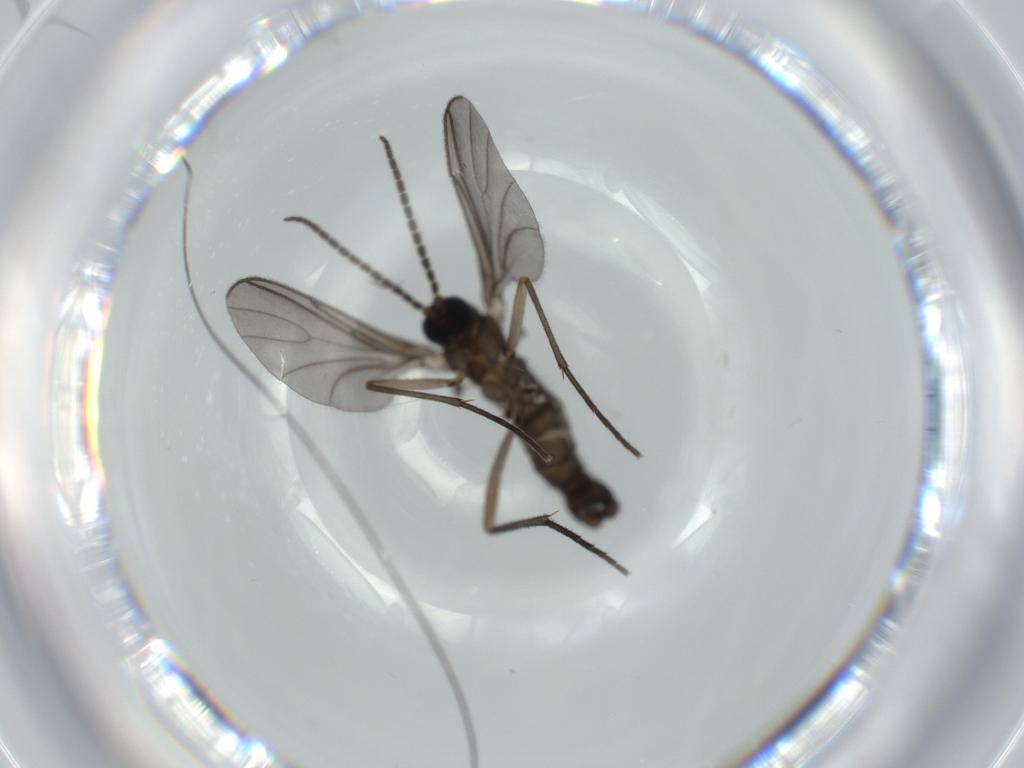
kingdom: Animalia
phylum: Arthropoda
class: Insecta
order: Diptera
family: Sciaridae
